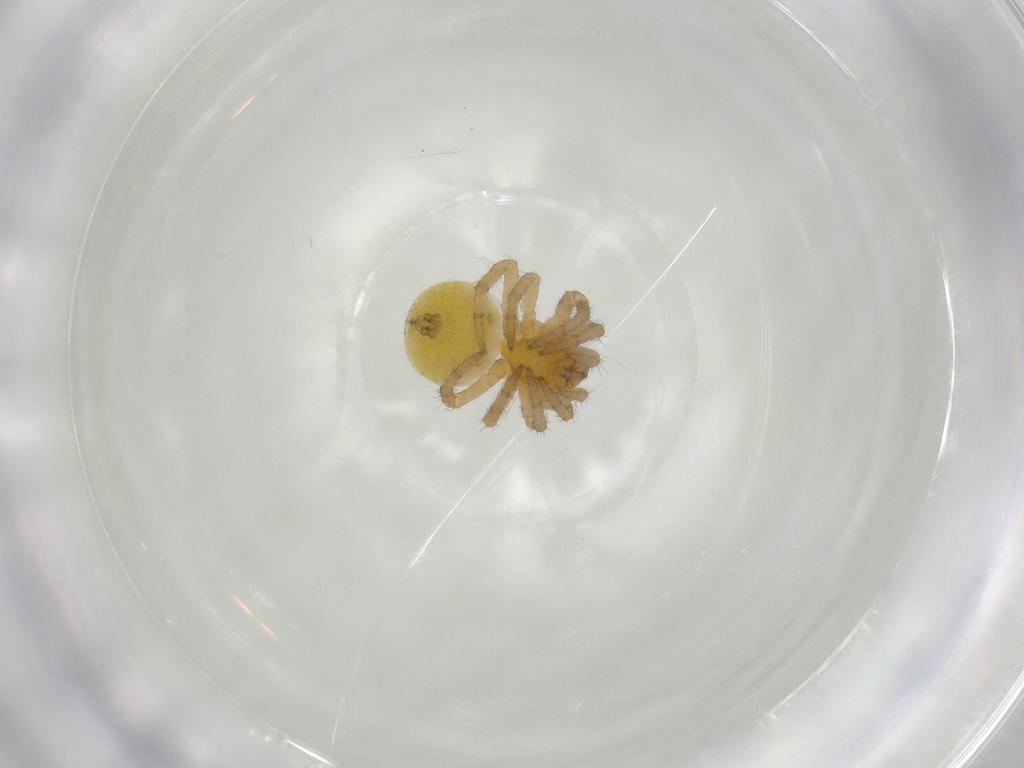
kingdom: Animalia
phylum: Arthropoda
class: Arachnida
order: Araneae
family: Araneidae
